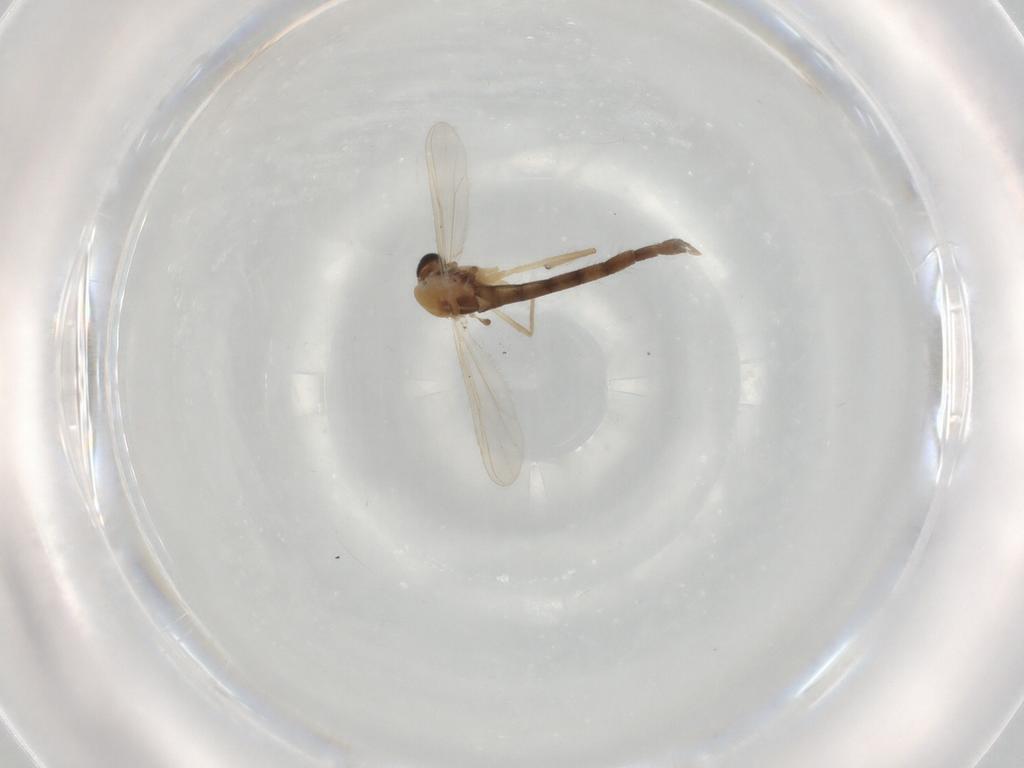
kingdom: Animalia
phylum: Arthropoda
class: Insecta
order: Diptera
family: Chironomidae
